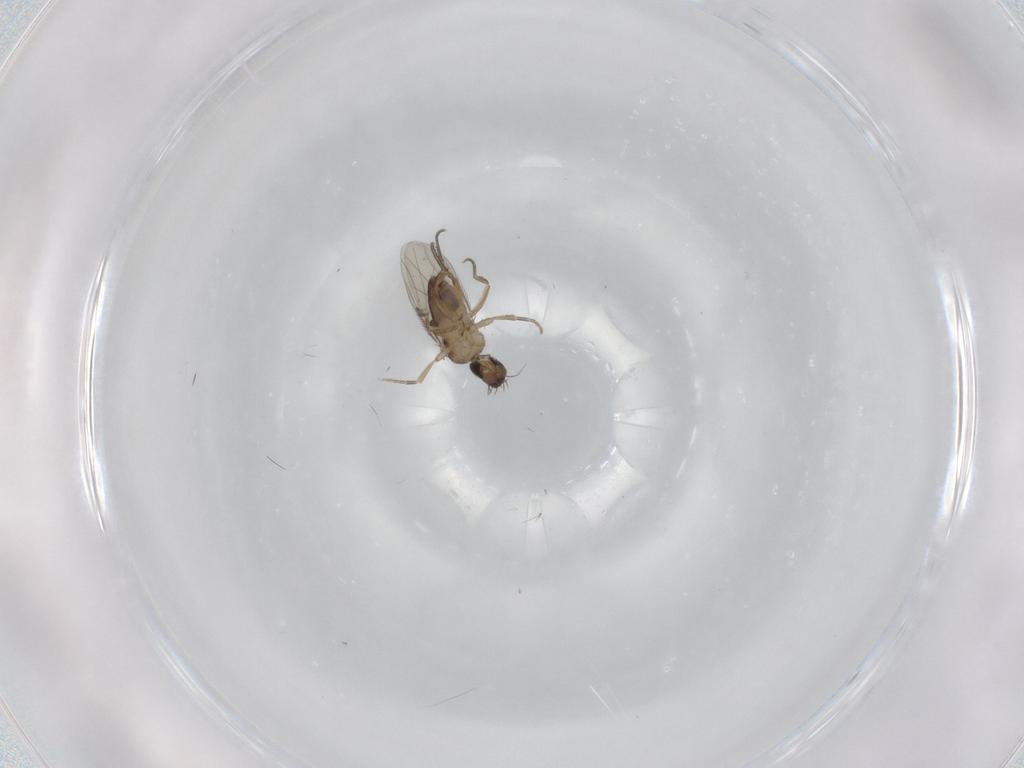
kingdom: Animalia
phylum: Arthropoda
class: Insecta
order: Diptera
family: Phoridae
